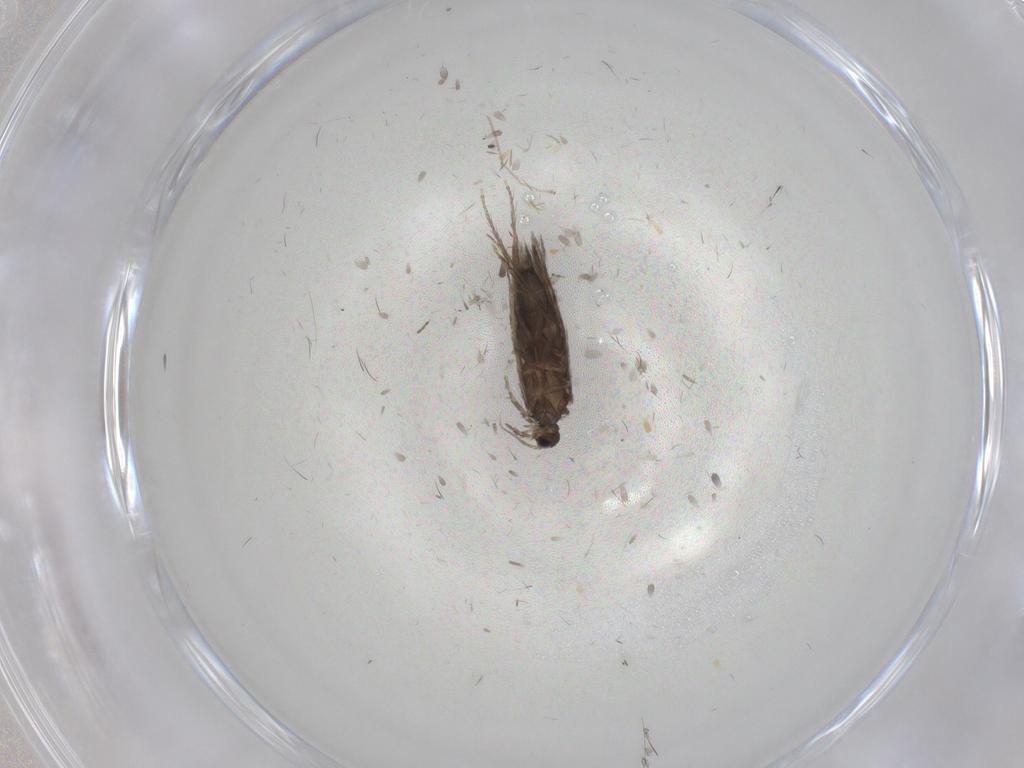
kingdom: Animalia
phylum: Arthropoda
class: Insecta
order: Trichoptera
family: Hydroptilidae
